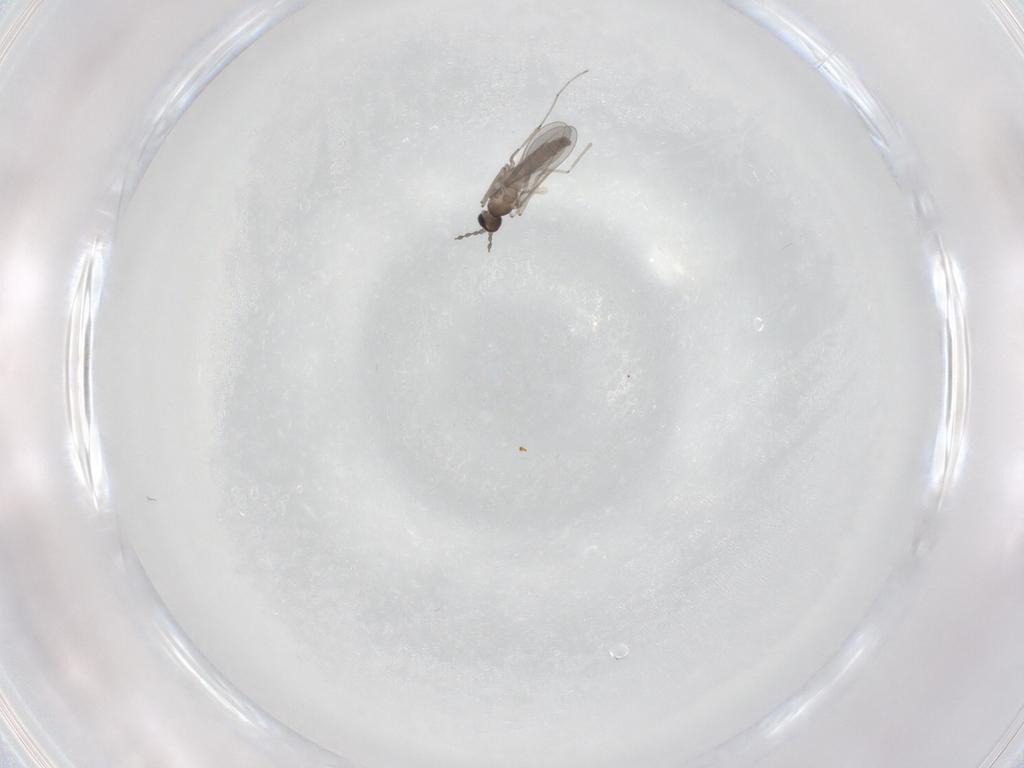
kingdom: Animalia
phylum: Arthropoda
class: Insecta
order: Diptera
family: Cecidomyiidae
